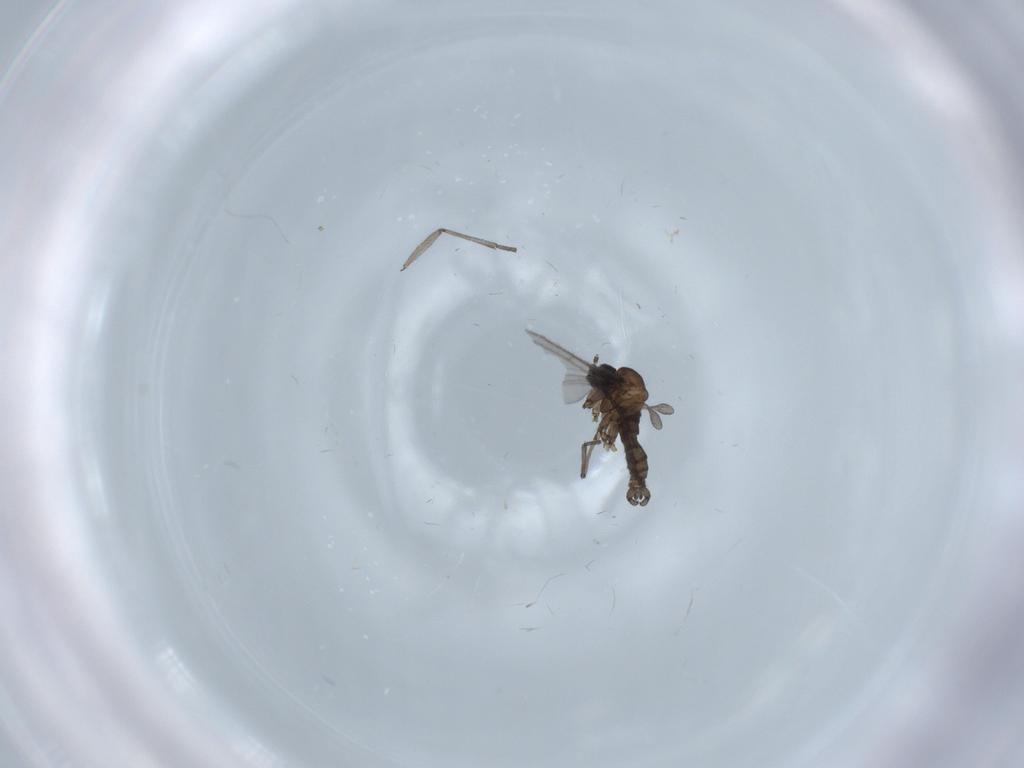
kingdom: Animalia
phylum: Arthropoda
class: Insecta
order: Diptera
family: Sciaridae
